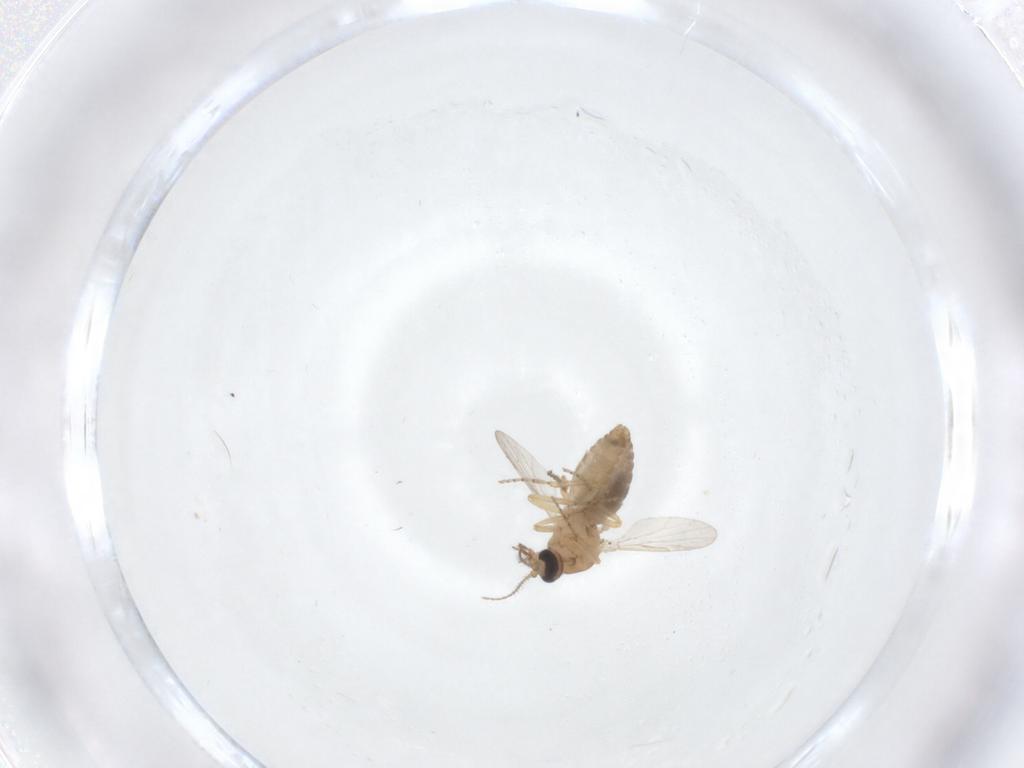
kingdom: Animalia
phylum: Arthropoda
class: Insecta
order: Diptera
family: Ceratopogonidae
